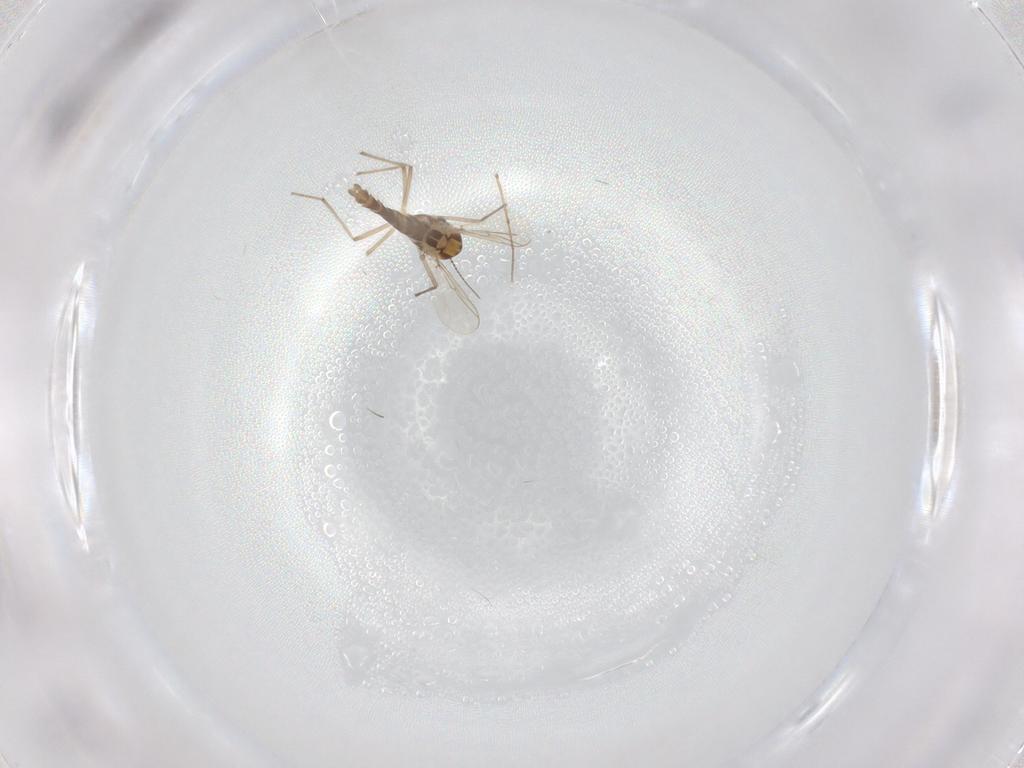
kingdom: Animalia
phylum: Arthropoda
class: Insecta
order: Diptera
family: Chironomidae
